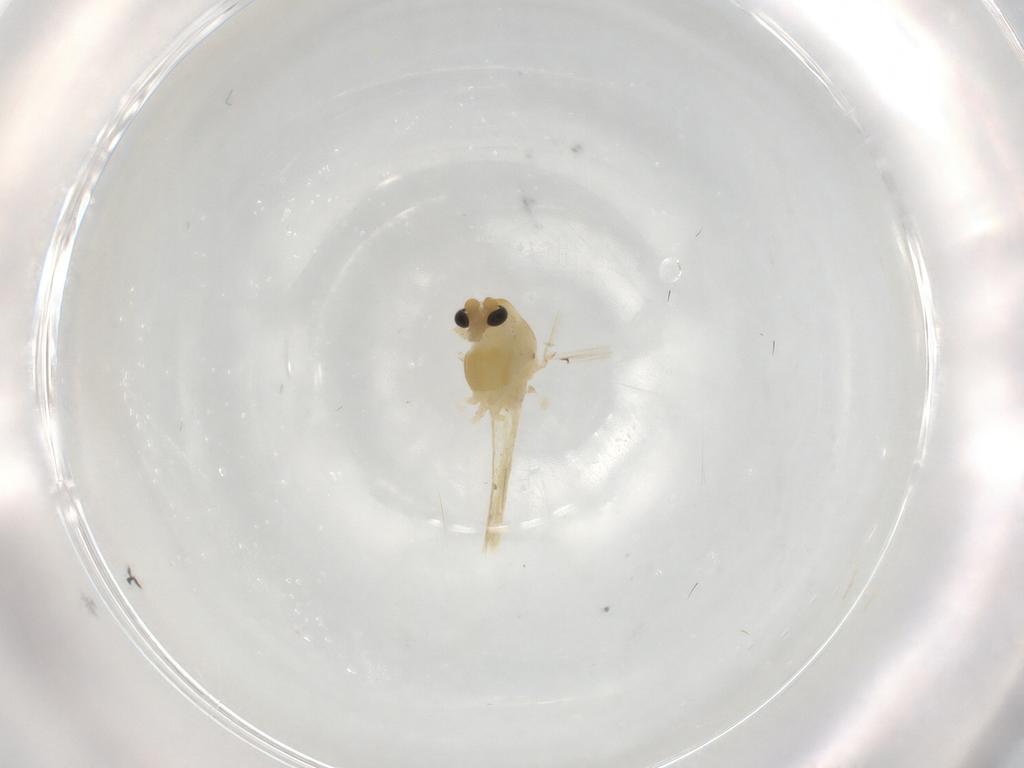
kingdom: Animalia
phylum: Arthropoda
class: Insecta
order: Diptera
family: Chironomidae
